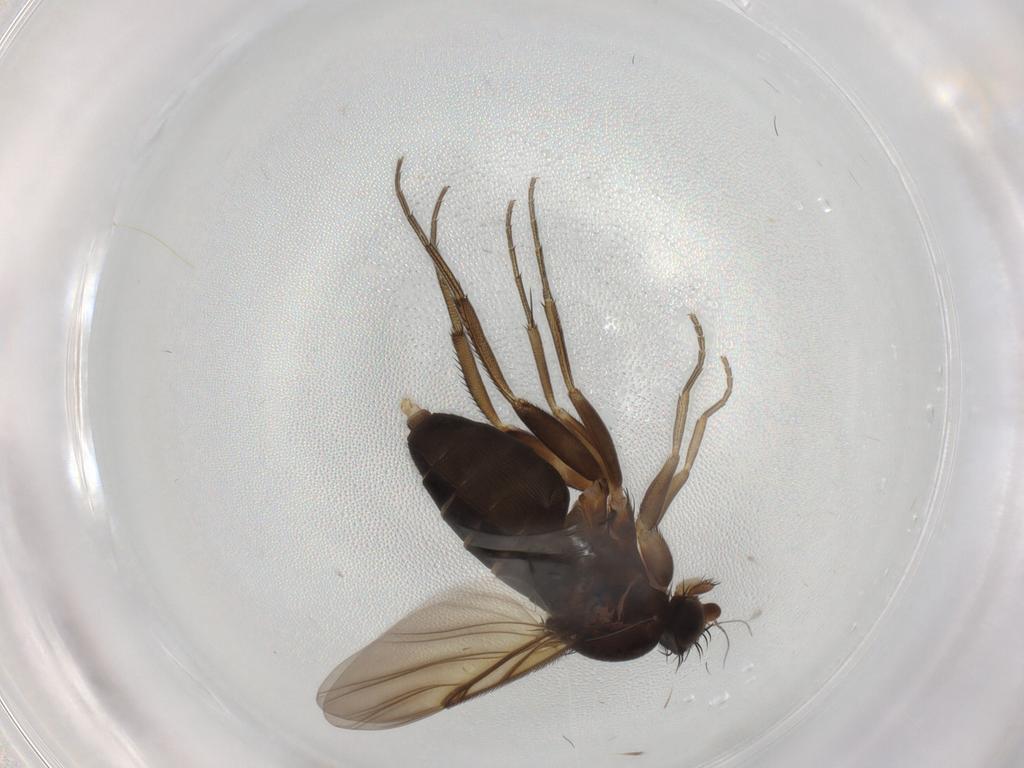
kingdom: Animalia
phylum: Arthropoda
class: Insecta
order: Diptera
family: Phoridae
